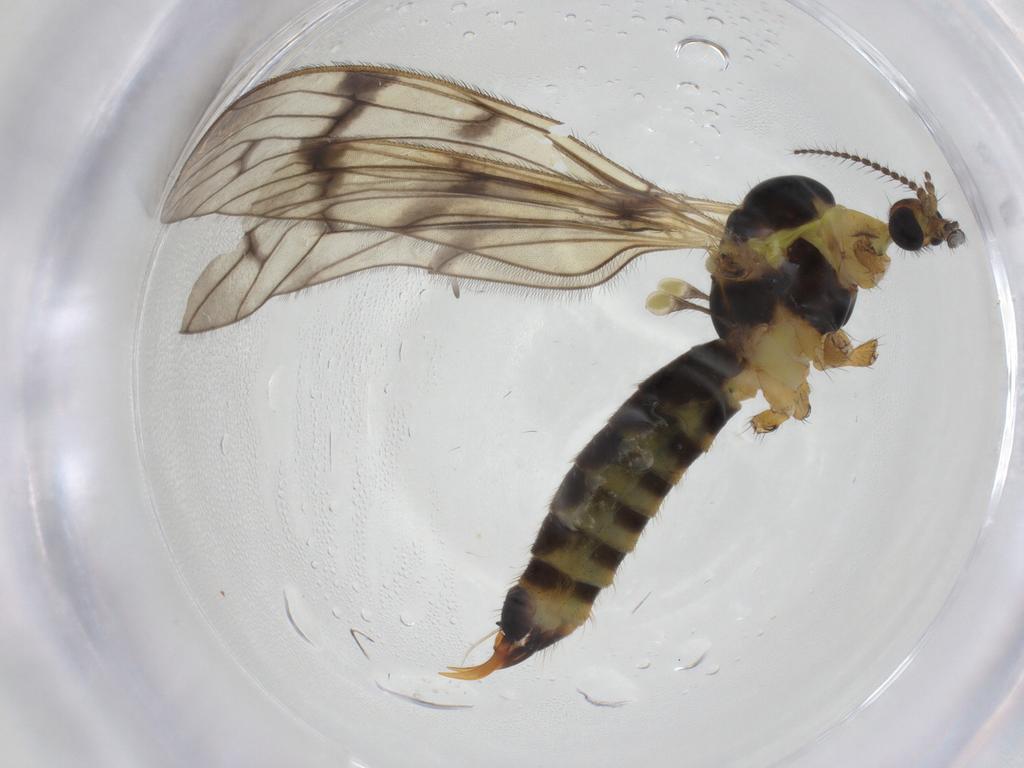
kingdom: Animalia
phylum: Arthropoda
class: Insecta
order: Diptera
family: Limoniidae
